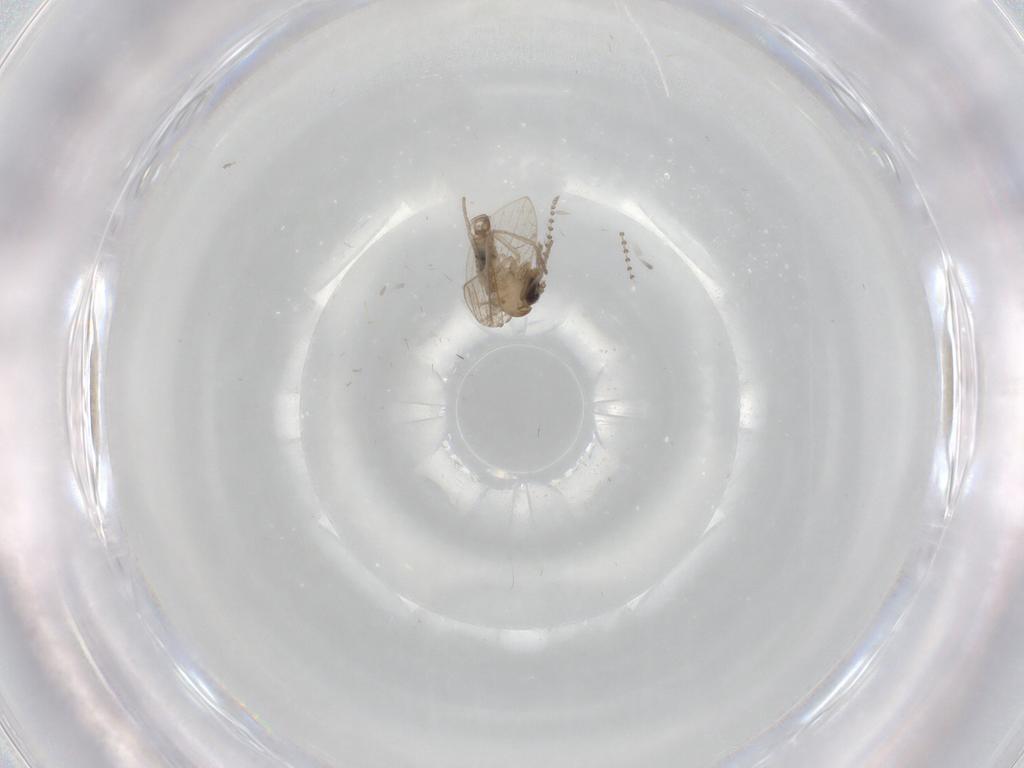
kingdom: Animalia
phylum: Arthropoda
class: Insecta
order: Diptera
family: Psychodidae
